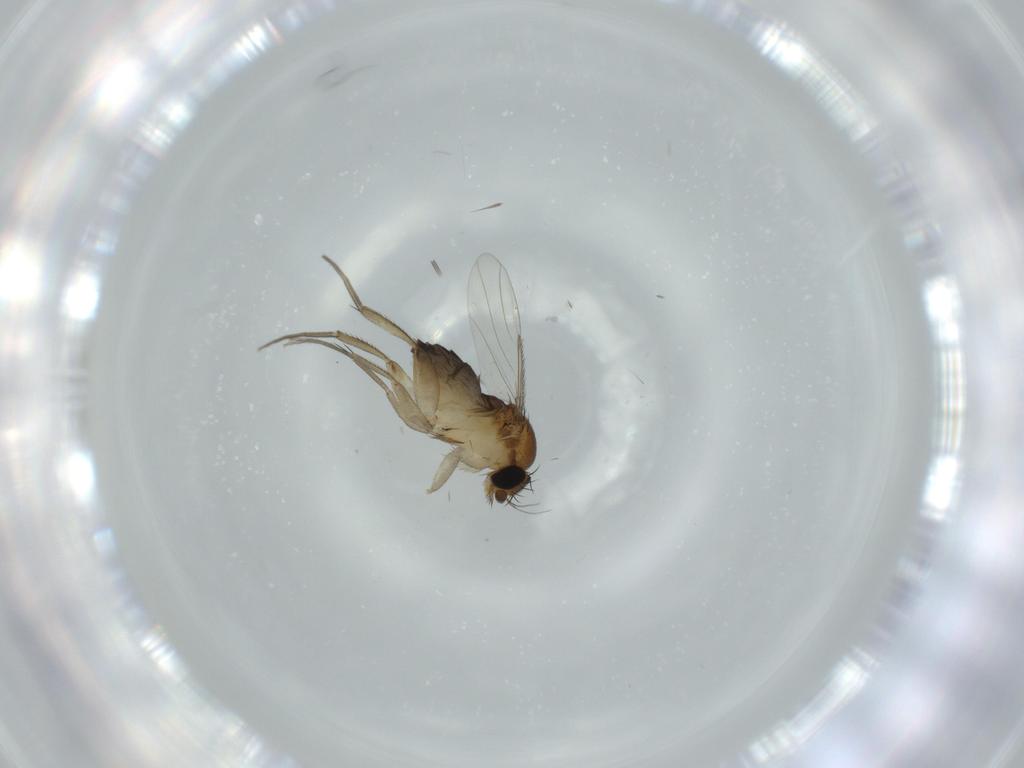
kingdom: Animalia
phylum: Arthropoda
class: Insecta
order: Diptera
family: Phoridae
